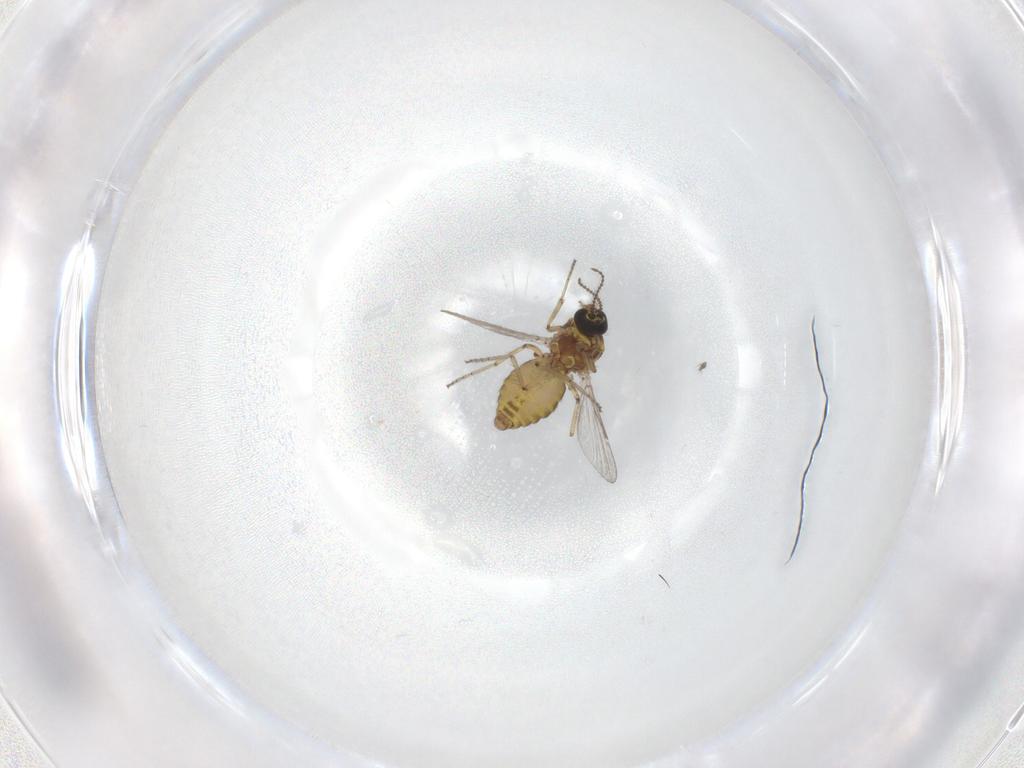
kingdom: Animalia
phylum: Arthropoda
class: Insecta
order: Diptera
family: Ceratopogonidae
